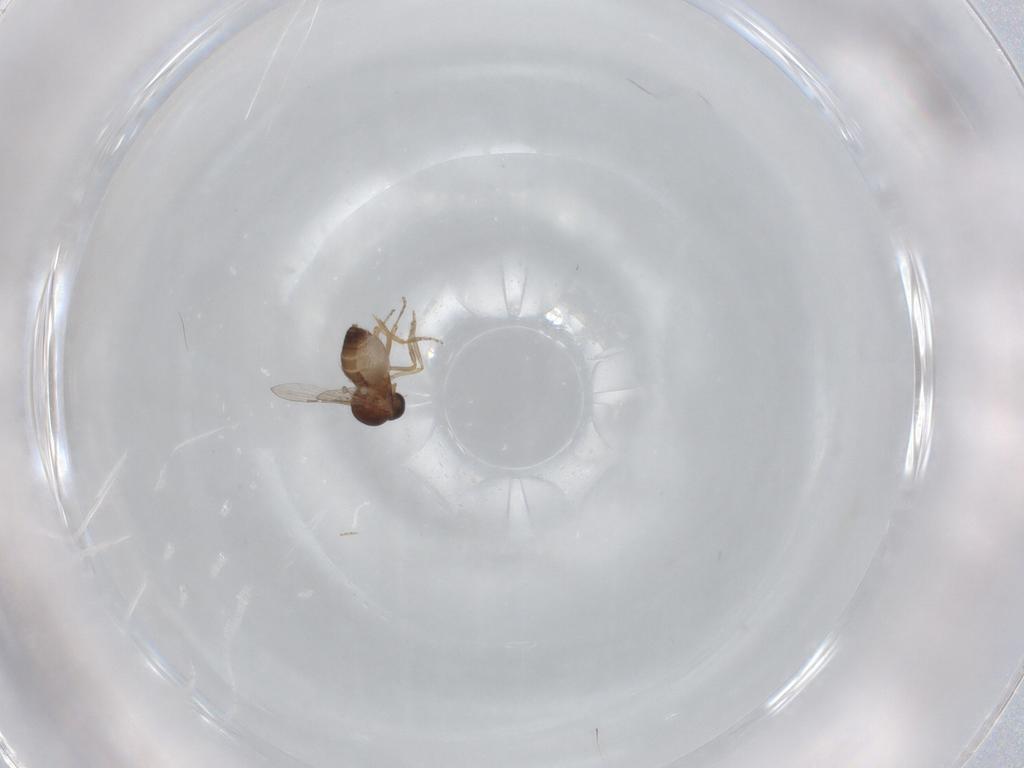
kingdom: Animalia
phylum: Arthropoda
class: Insecta
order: Diptera
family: Ceratopogonidae
